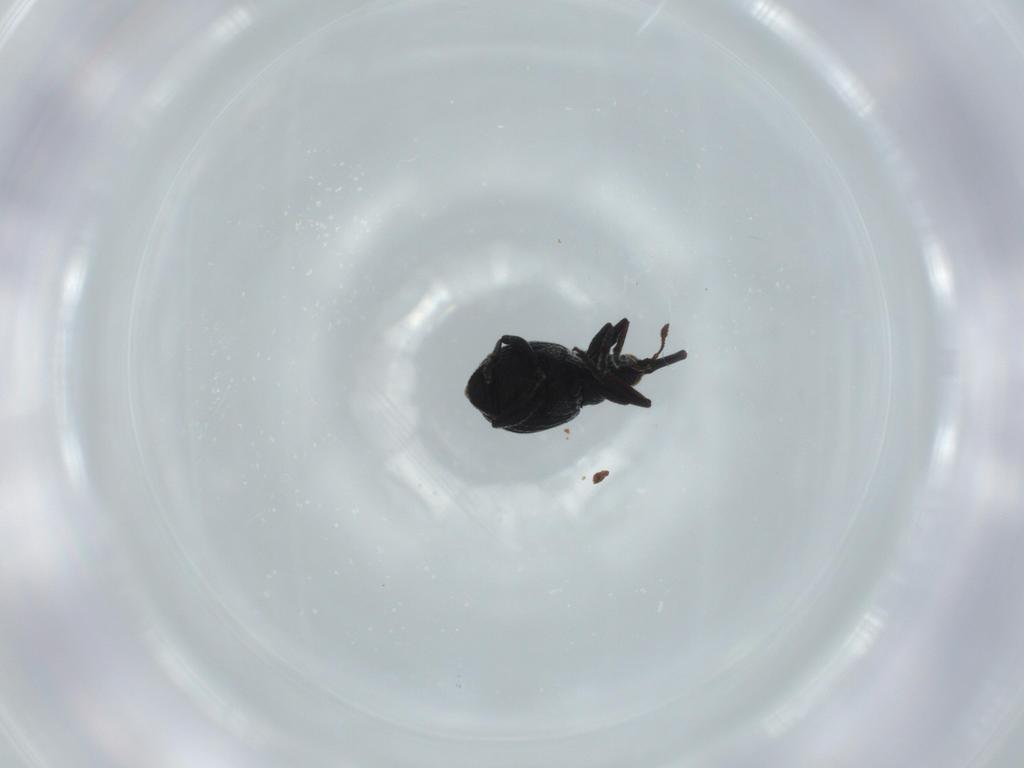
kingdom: Animalia
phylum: Arthropoda
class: Insecta
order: Coleoptera
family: Brentidae
